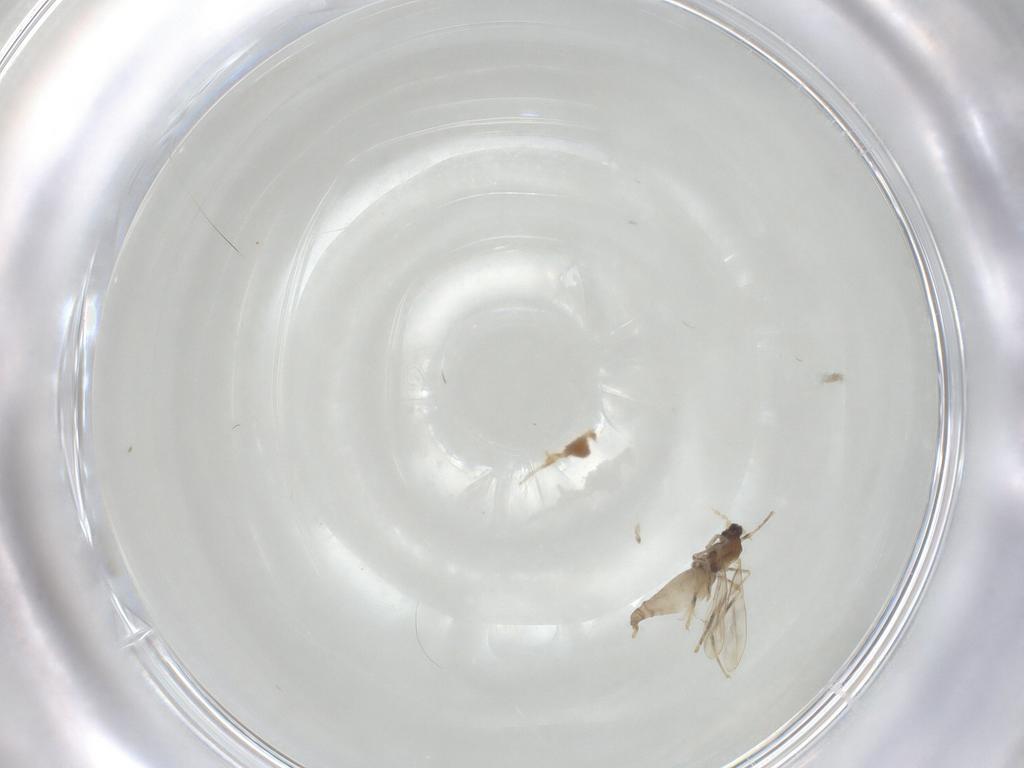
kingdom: Animalia
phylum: Arthropoda
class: Insecta
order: Diptera
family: Cecidomyiidae
